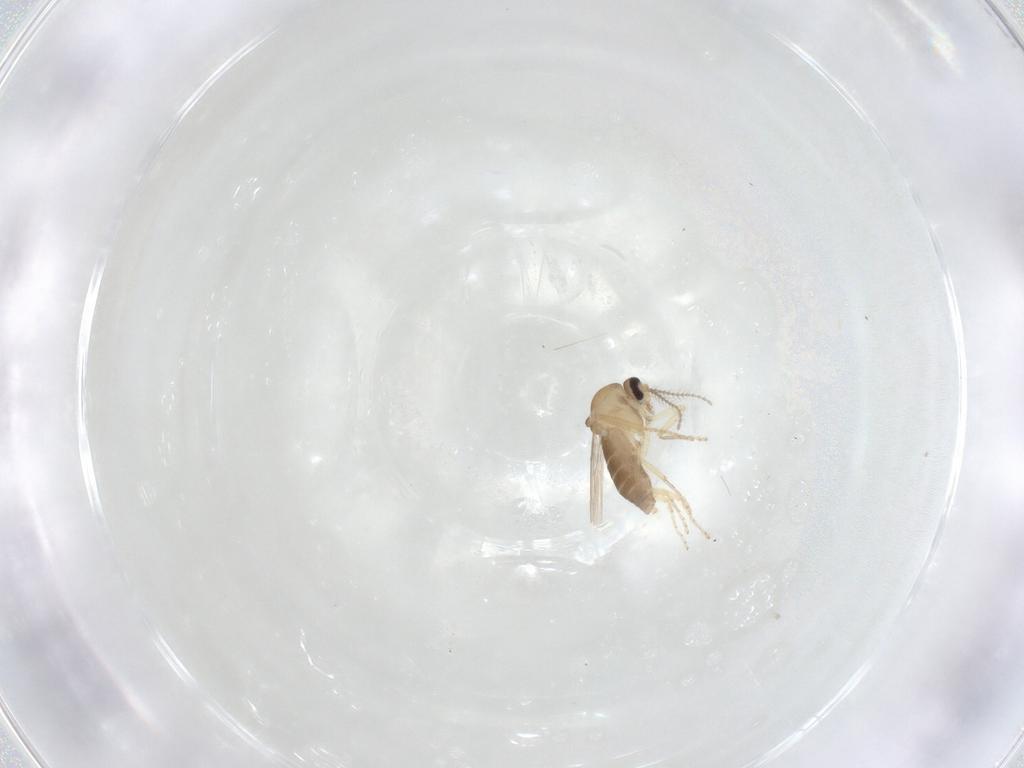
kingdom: Animalia
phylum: Arthropoda
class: Insecta
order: Diptera
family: Ceratopogonidae
